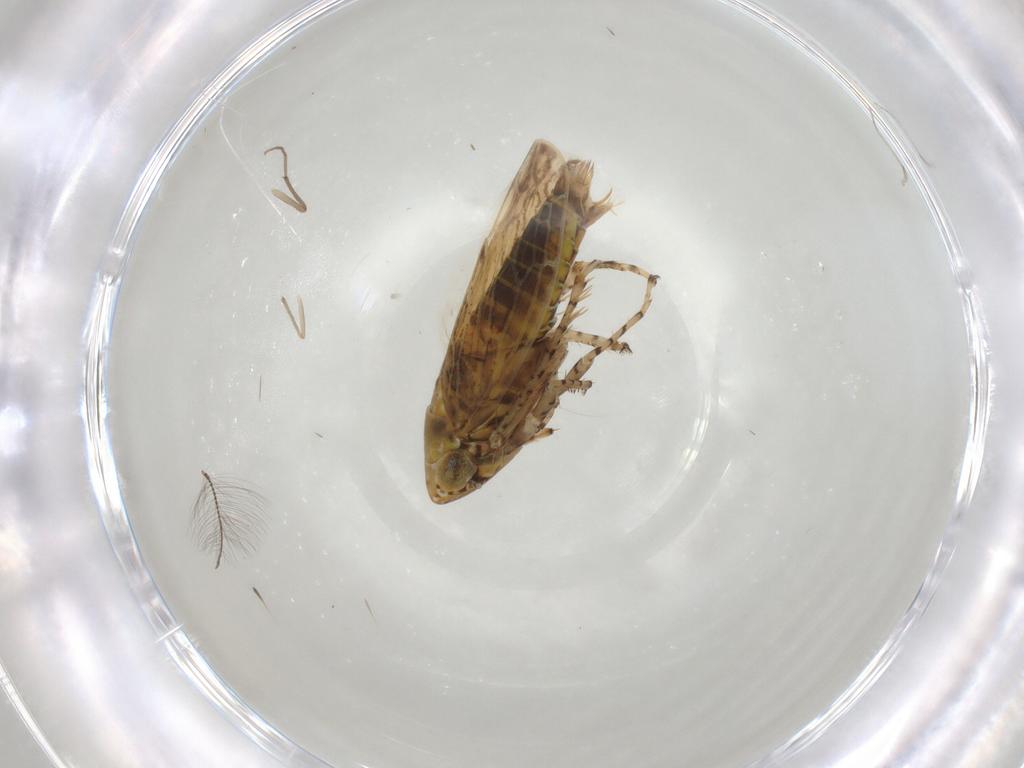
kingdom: Animalia
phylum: Arthropoda
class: Insecta
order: Hemiptera
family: Cicadellidae
